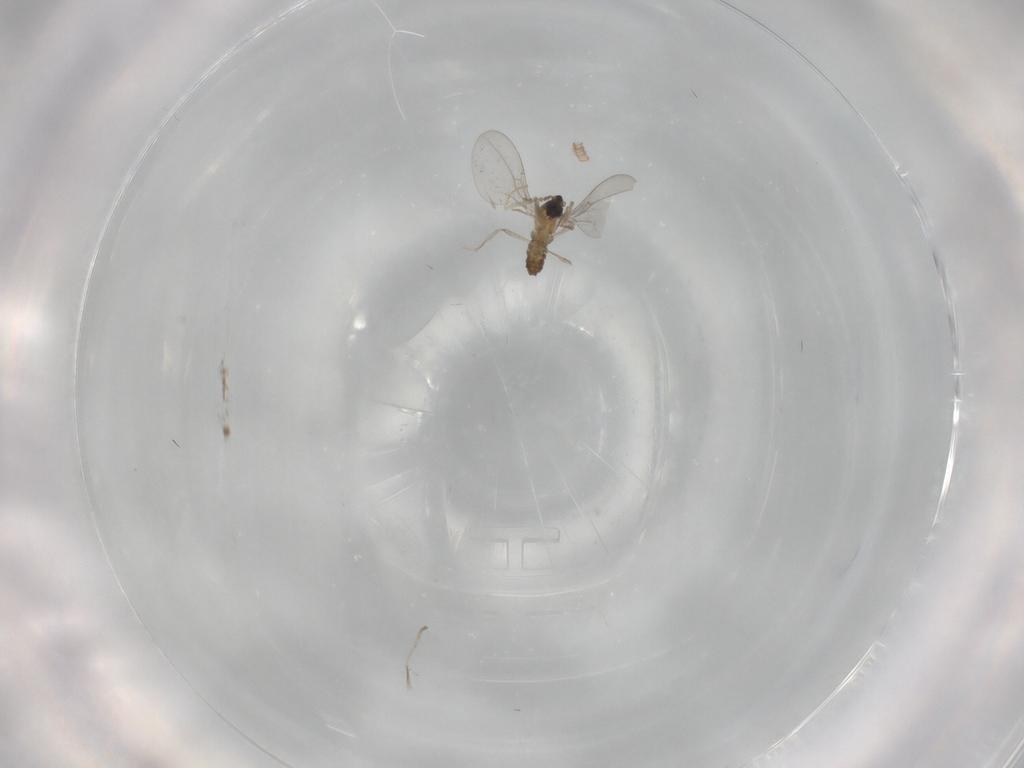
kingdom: Animalia
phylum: Arthropoda
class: Insecta
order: Diptera
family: Cecidomyiidae
